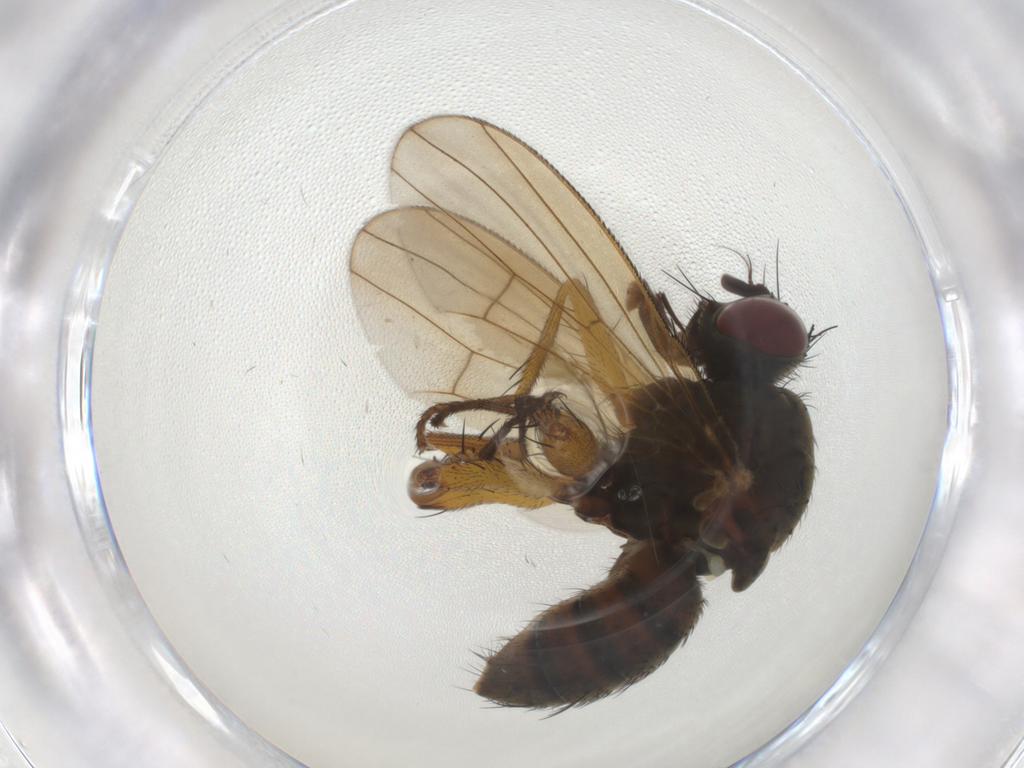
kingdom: Animalia
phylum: Arthropoda
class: Insecta
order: Diptera
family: Muscidae
